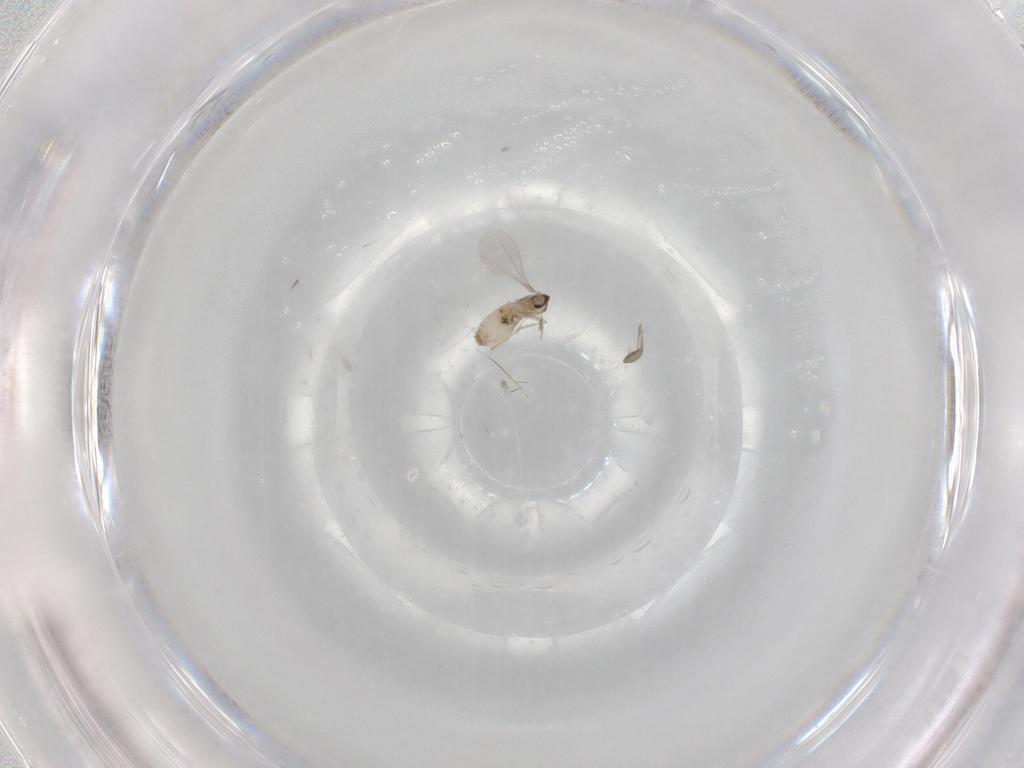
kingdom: Animalia
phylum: Arthropoda
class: Insecta
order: Diptera
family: Cecidomyiidae
